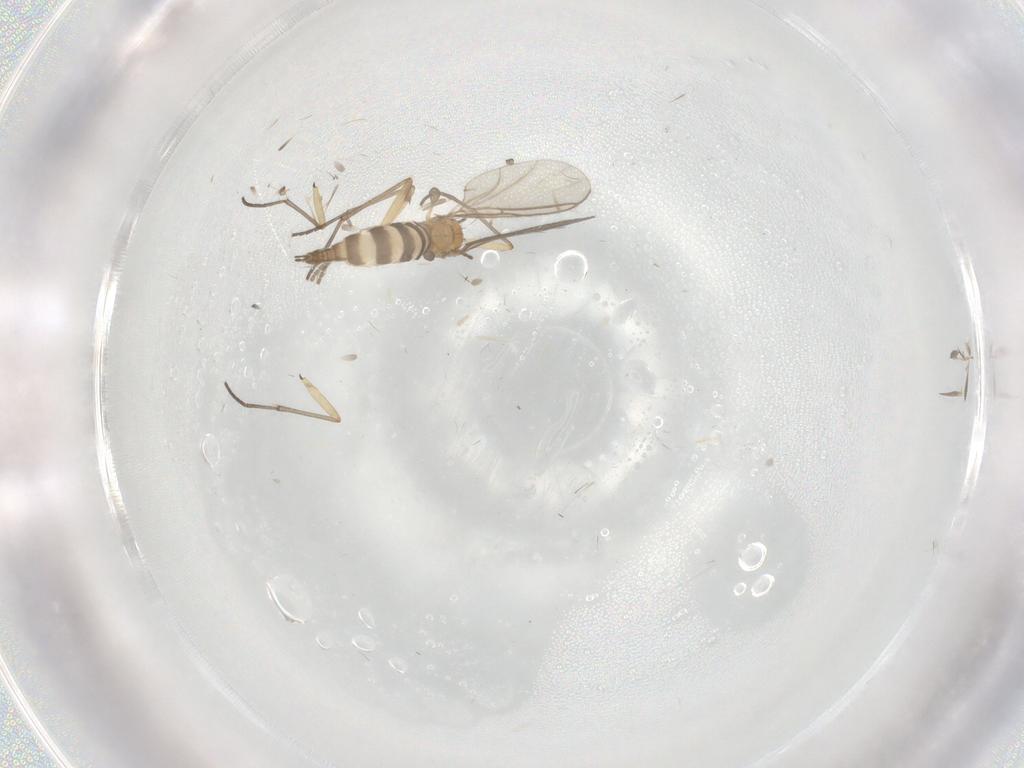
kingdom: Animalia
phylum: Arthropoda
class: Insecta
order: Diptera
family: Sciaridae
